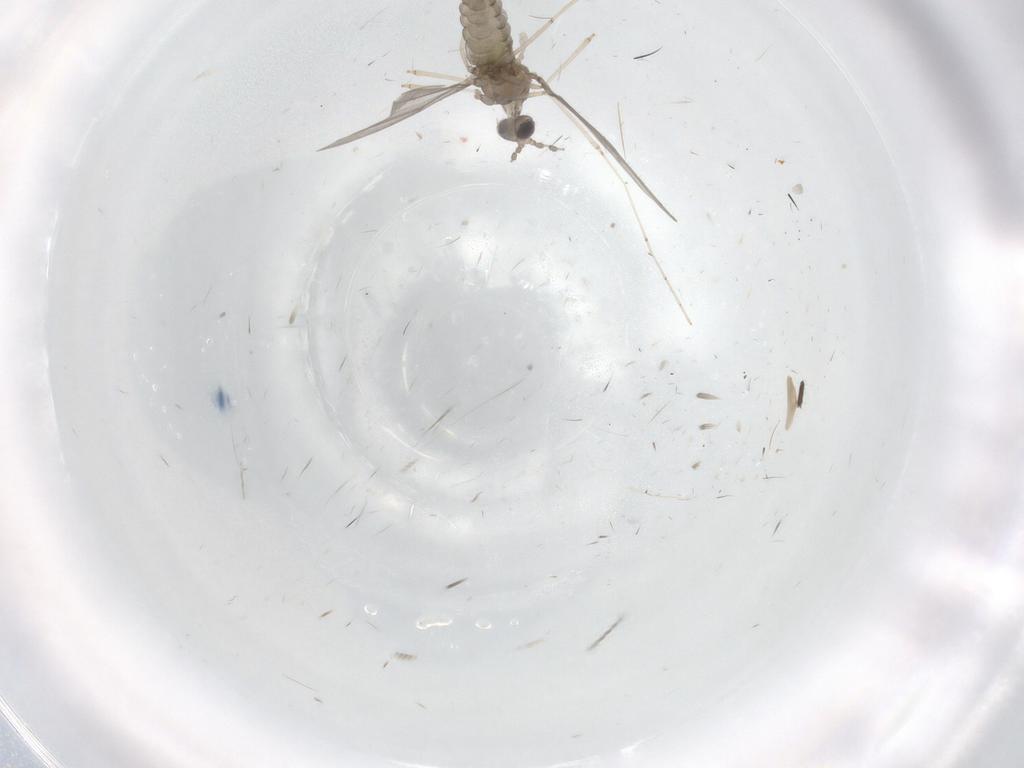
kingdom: Animalia
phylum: Arthropoda
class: Insecta
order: Diptera
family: Cecidomyiidae
